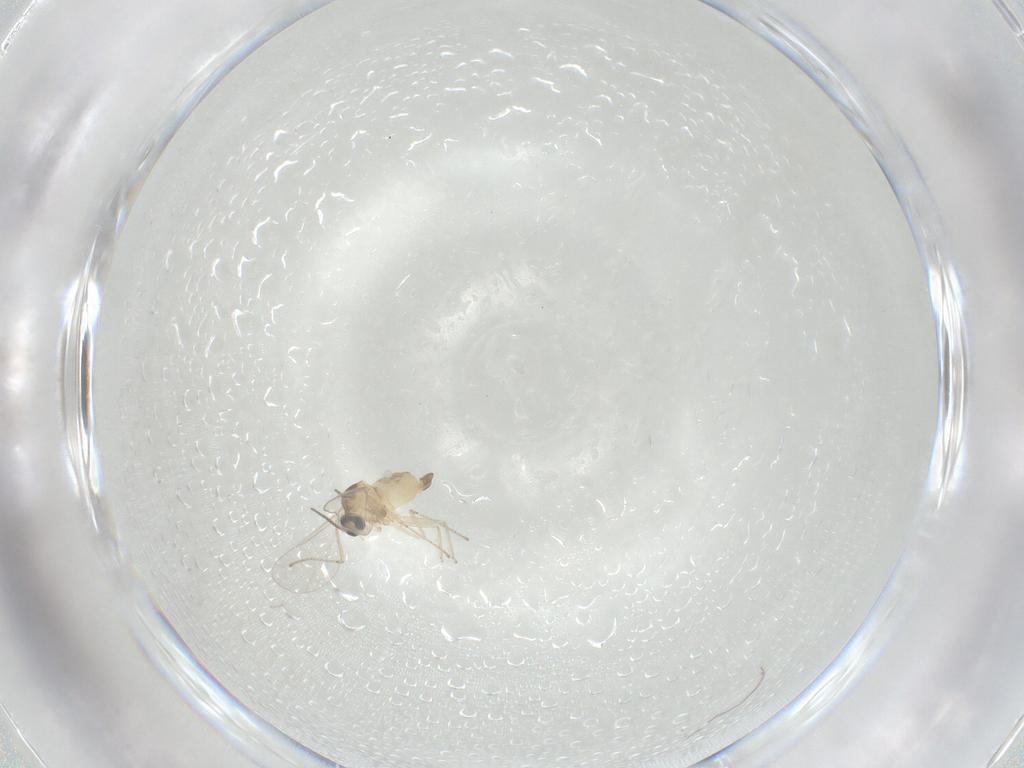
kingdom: Animalia
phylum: Arthropoda
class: Insecta
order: Diptera
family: Cecidomyiidae
